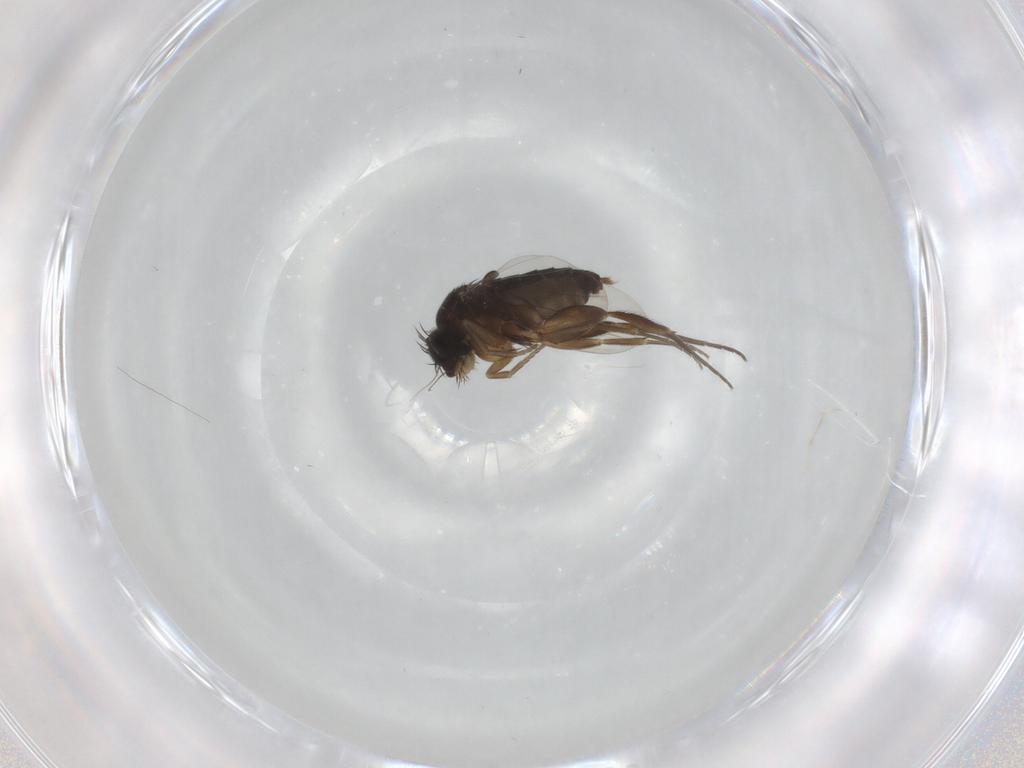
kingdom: Animalia
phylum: Arthropoda
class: Insecta
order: Diptera
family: Phoridae
